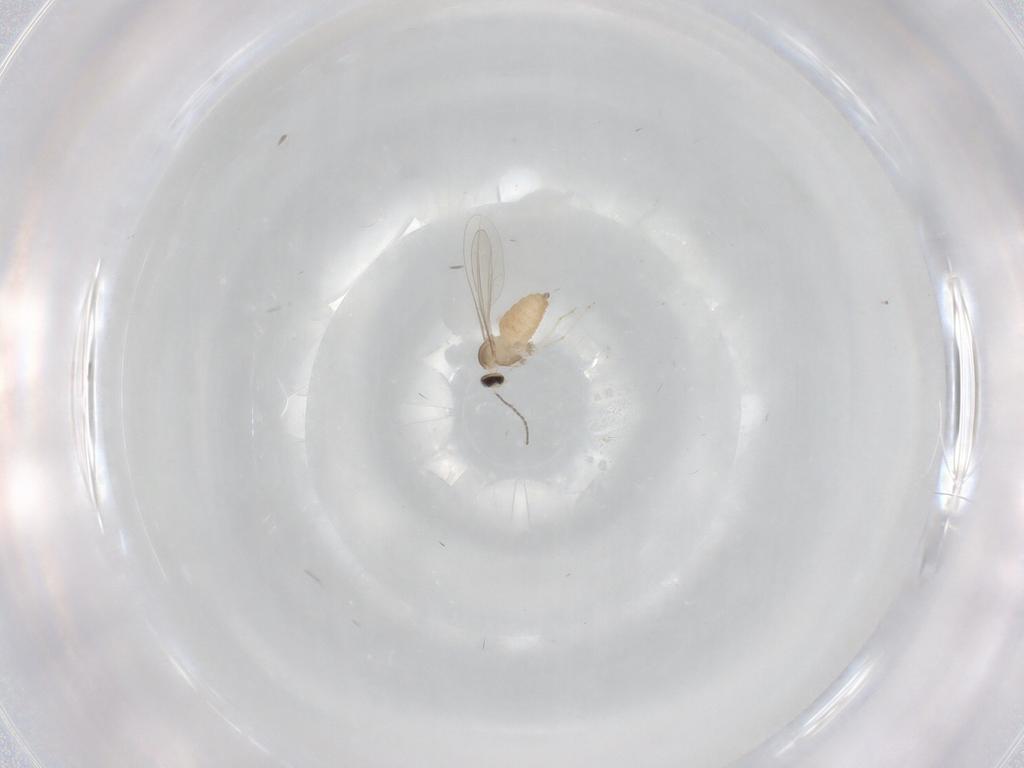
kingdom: Animalia
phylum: Arthropoda
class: Insecta
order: Diptera
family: Cecidomyiidae
